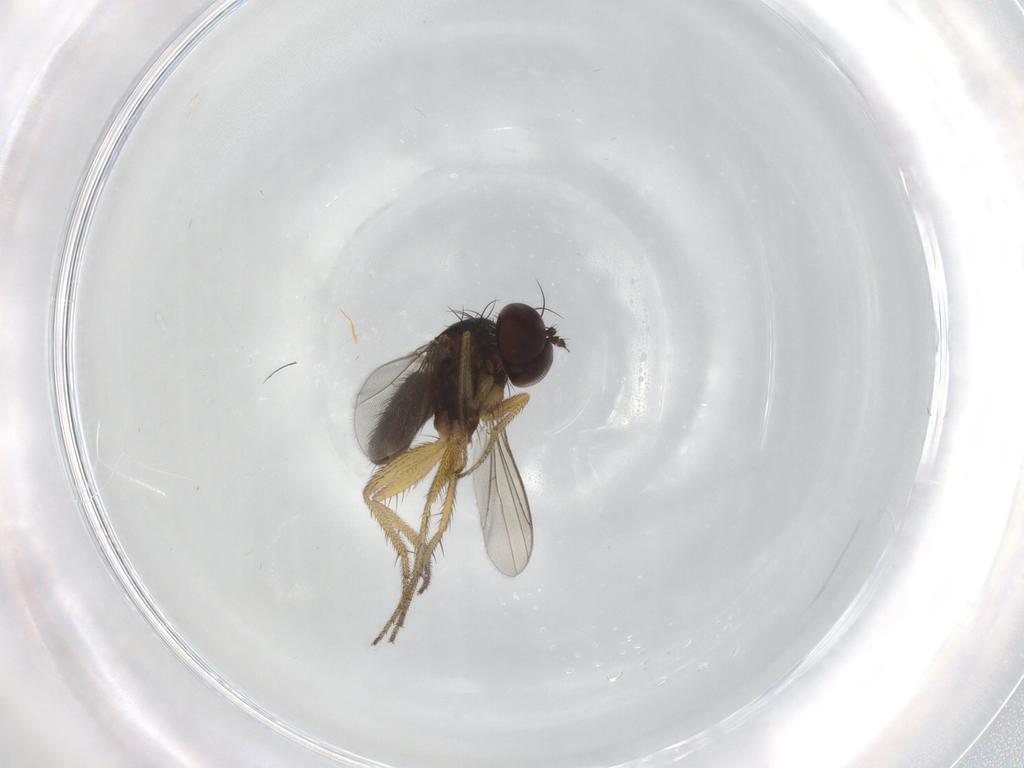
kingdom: Animalia
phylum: Arthropoda
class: Insecta
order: Diptera
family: Dolichopodidae
